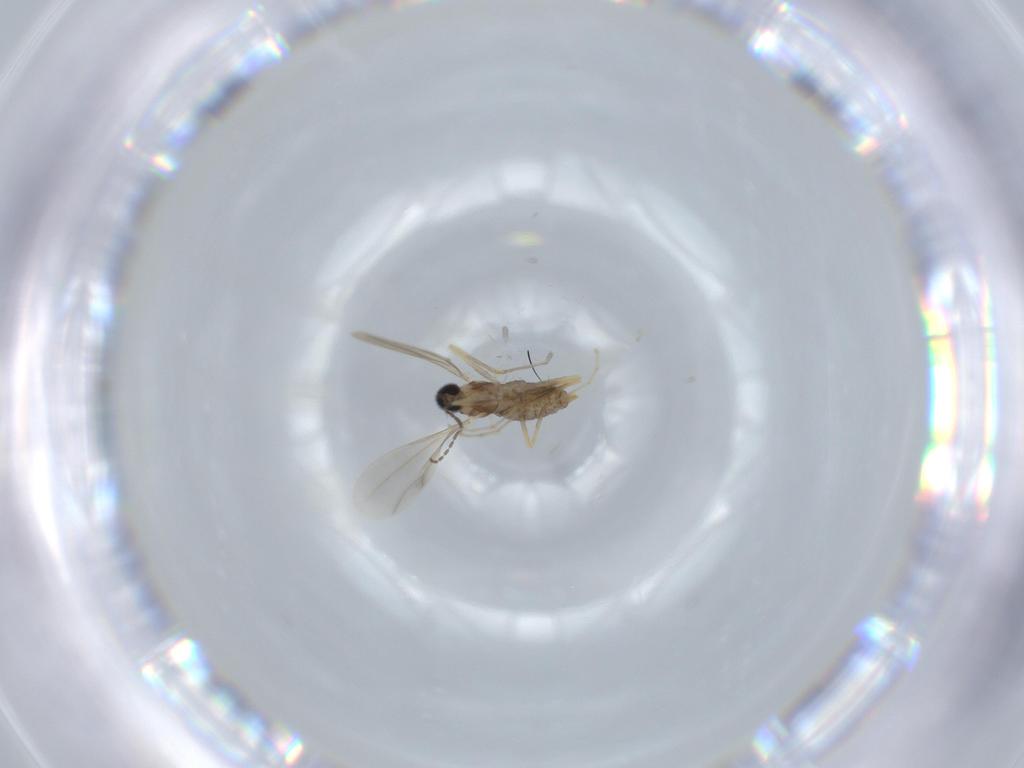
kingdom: Animalia
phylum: Arthropoda
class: Insecta
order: Diptera
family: Cecidomyiidae
